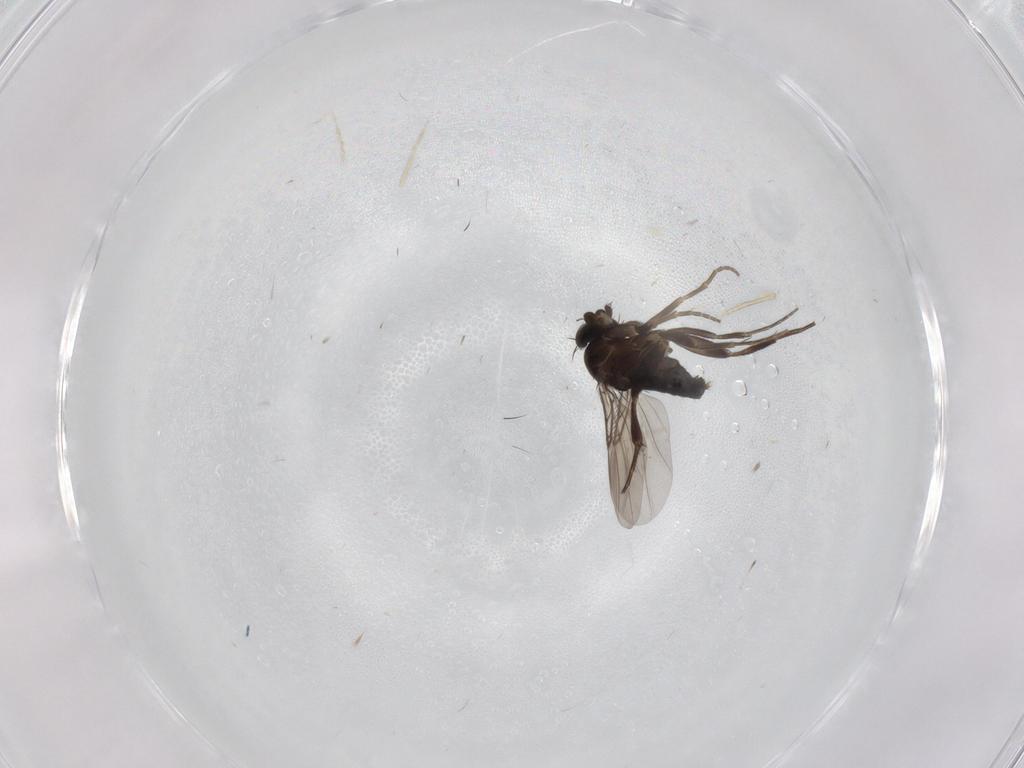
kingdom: Animalia
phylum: Arthropoda
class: Insecta
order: Diptera
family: Phoridae
